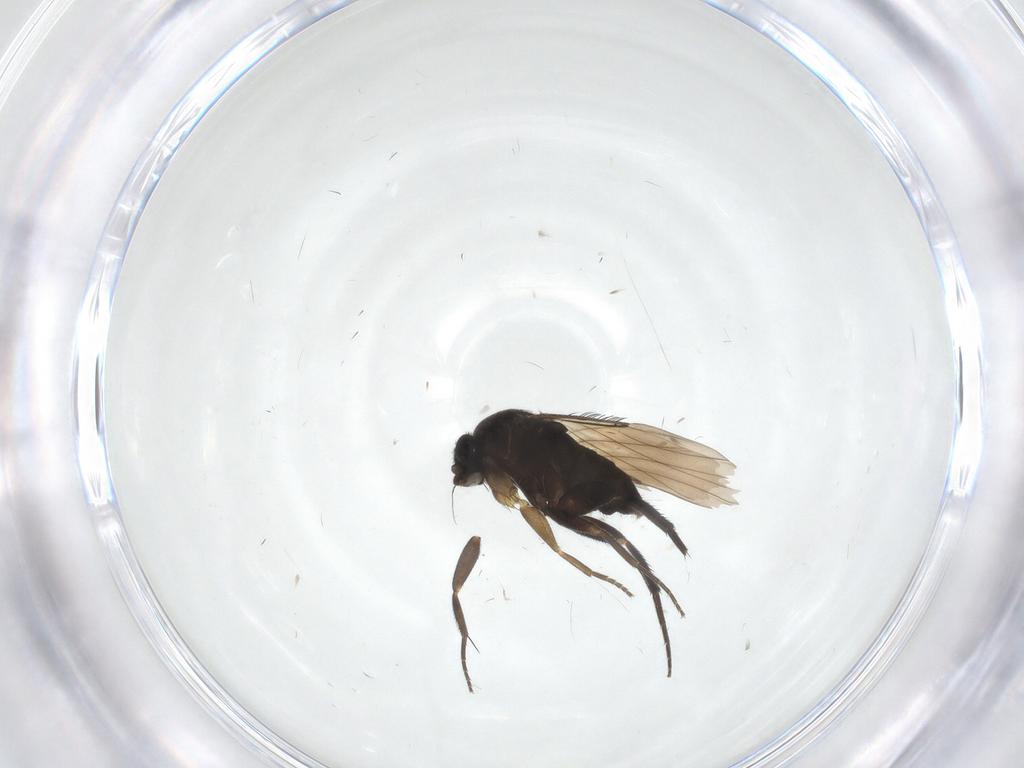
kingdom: Animalia
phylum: Arthropoda
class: Insecta
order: Diptera
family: Phoridae
